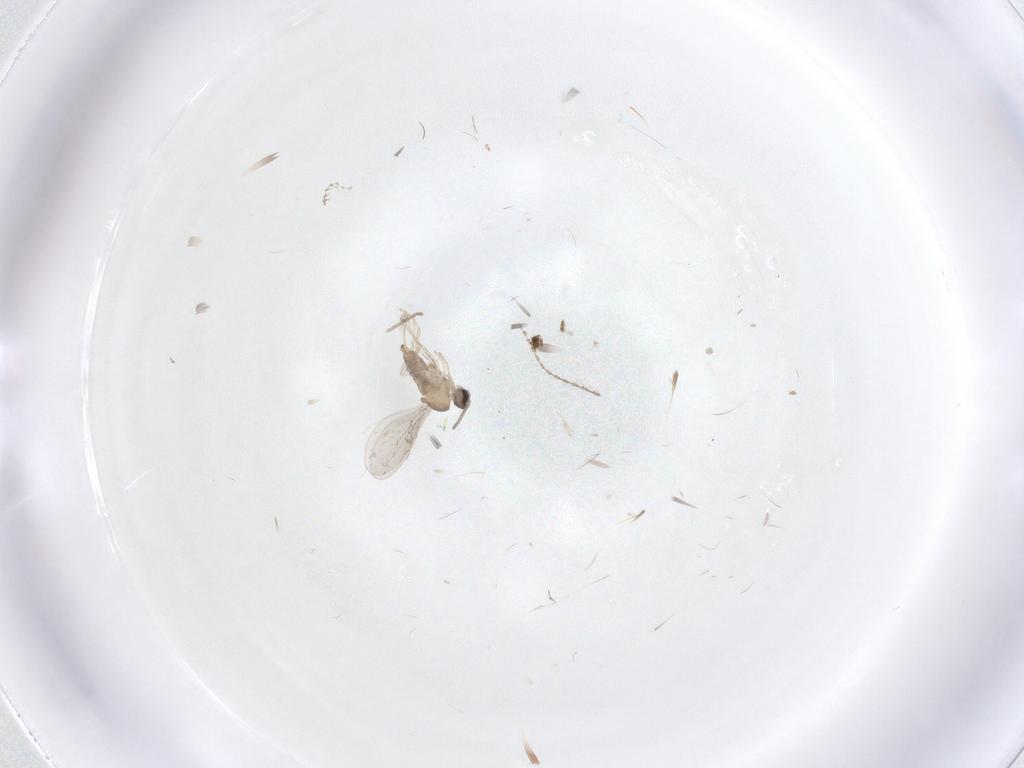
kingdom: Animalia
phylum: Arthropoda
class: Insecta
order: Diptera
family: Cecidomyiidae
